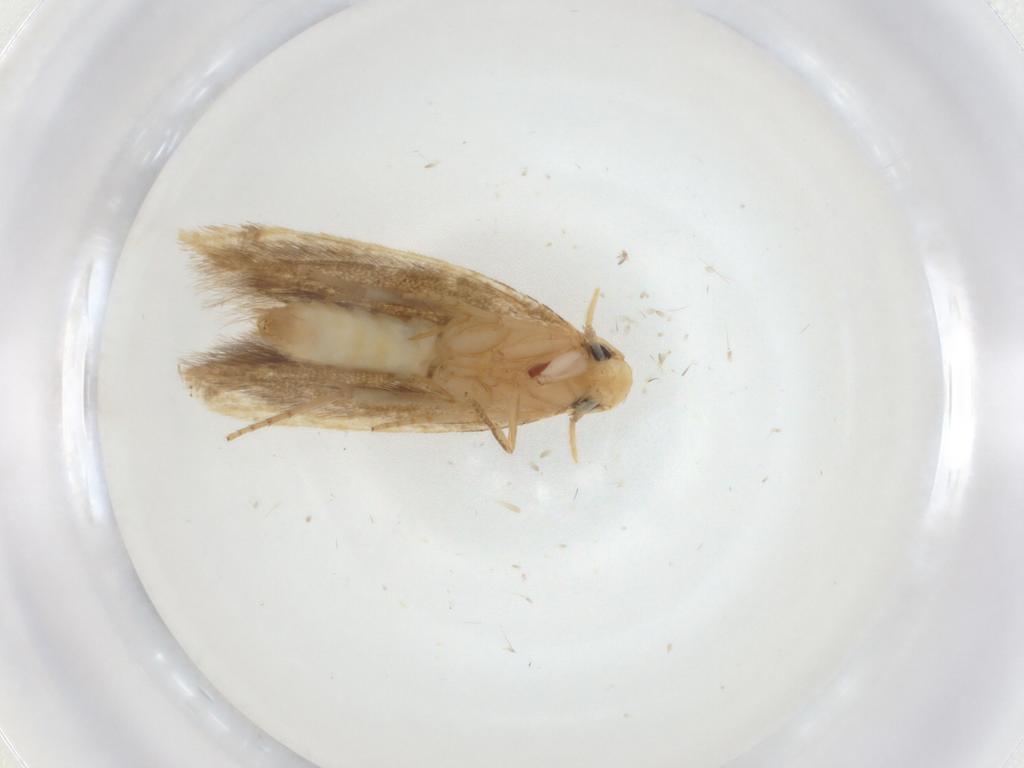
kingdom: Animalia
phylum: Arthropoda
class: Insecta
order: Lepidoptera
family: Tineidae
